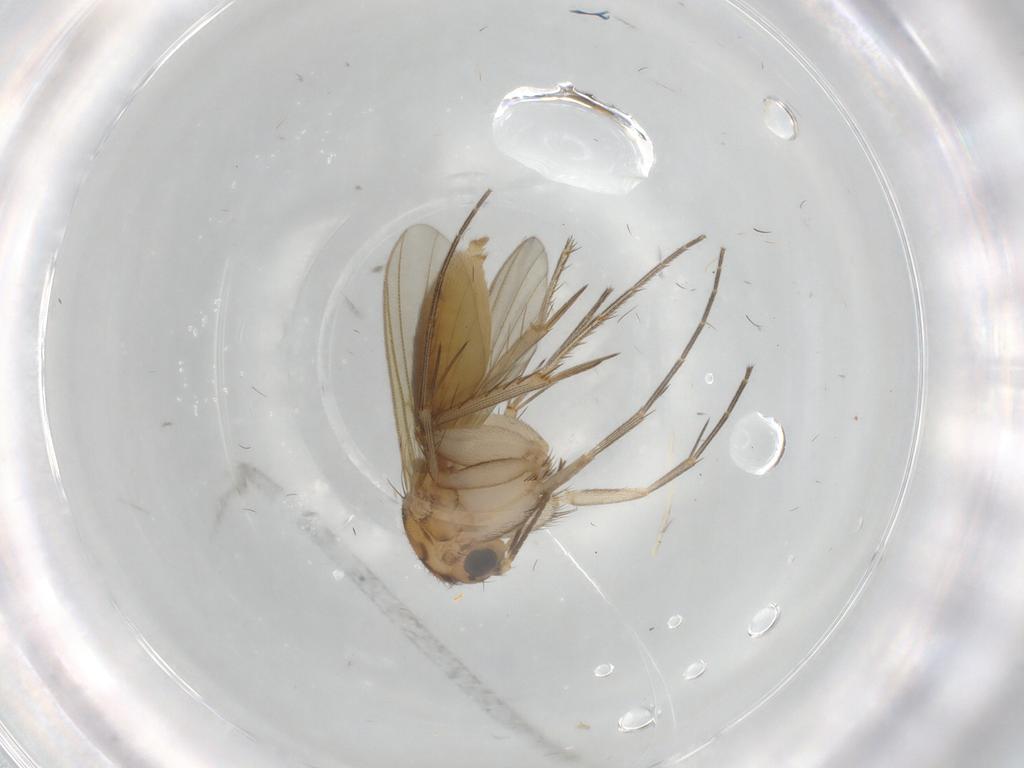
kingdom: Animalia
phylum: Arthropoda
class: Insecta
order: Diptera
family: Mycetophilidae
